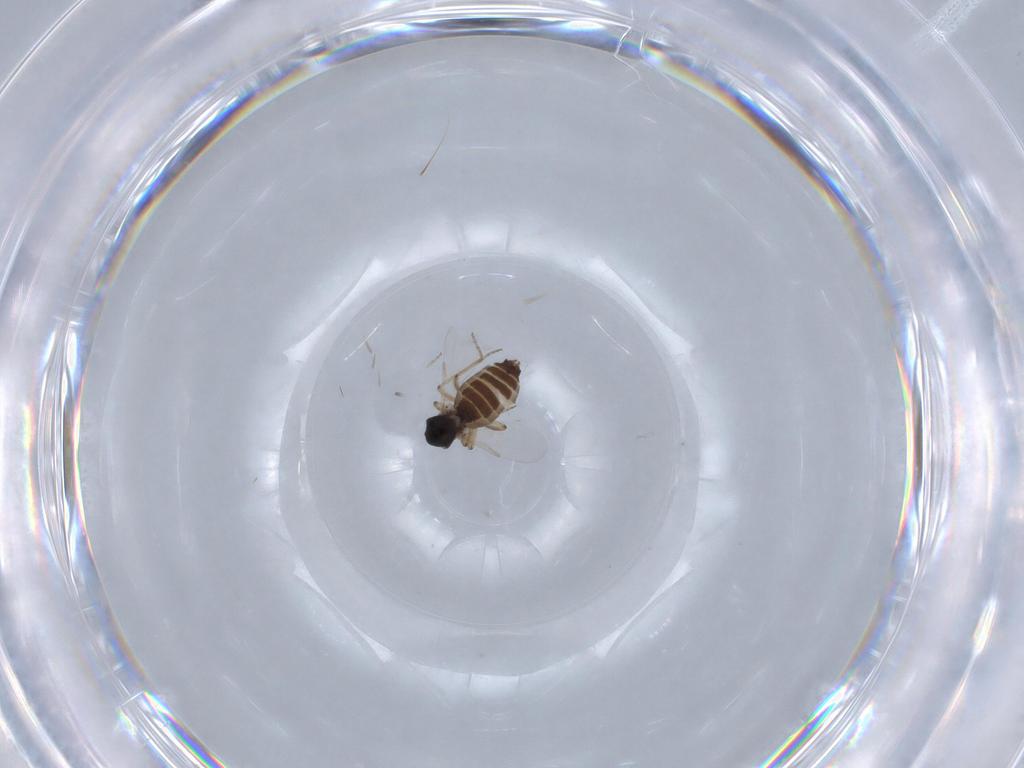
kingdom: Animalia
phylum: Arthropoda
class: Insecta
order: Diptera
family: Ceratopogonidae
